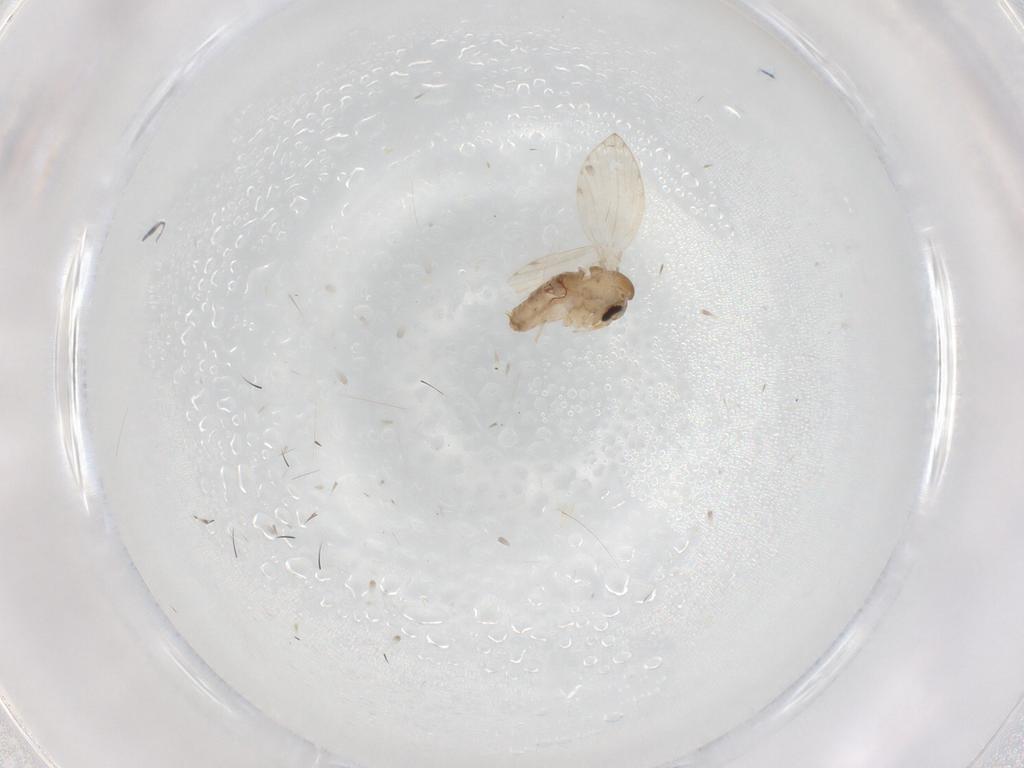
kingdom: Animalia
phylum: Arthropoda
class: Insecta
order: Diptera
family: Psychodidae
